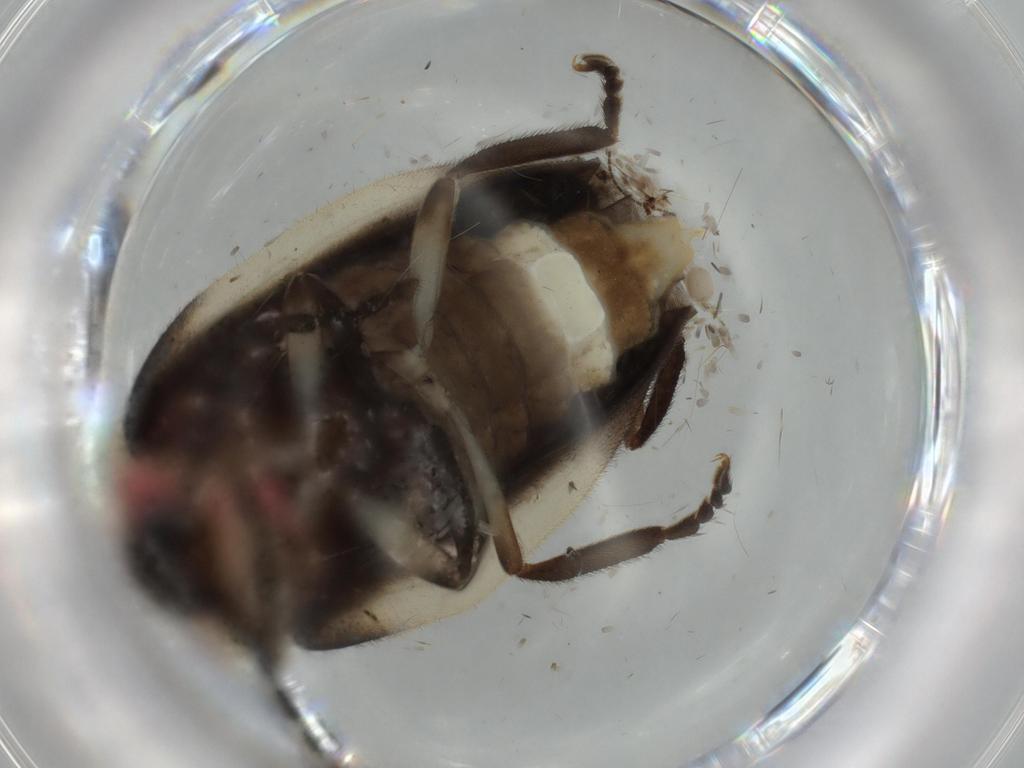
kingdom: Animalia
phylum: Arthropoda
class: Insecta
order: Coleoptera
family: Lampyridae
